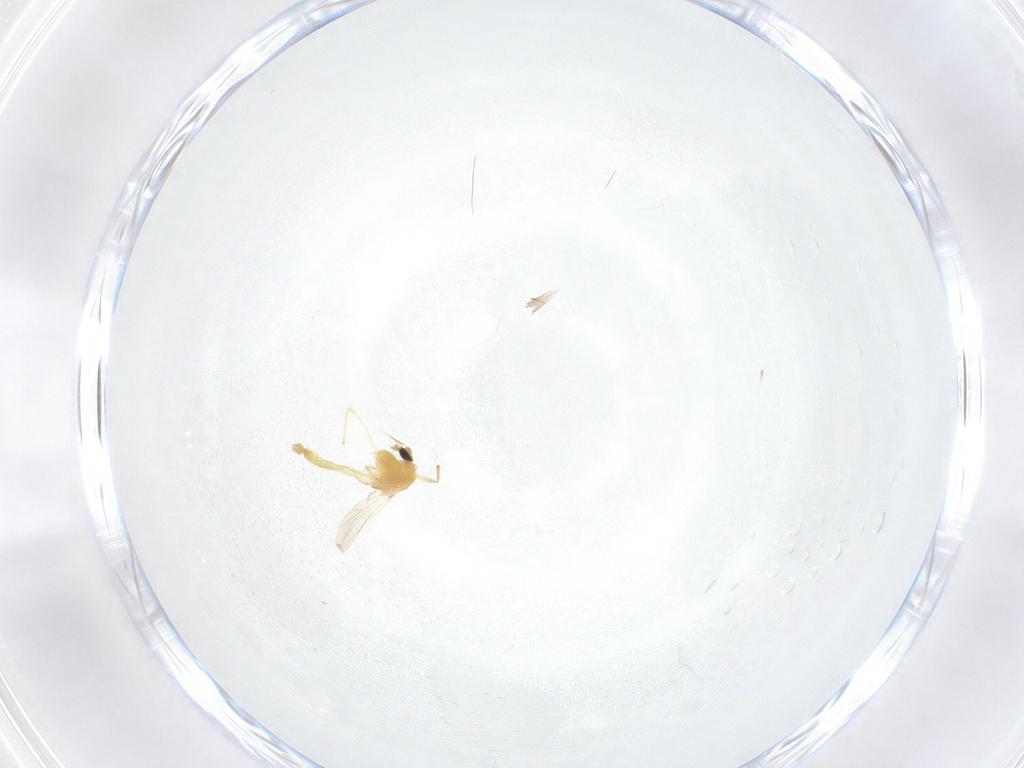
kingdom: Animalia
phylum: Arthropoda
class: Insecta
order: Diptera
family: Chironomidae
